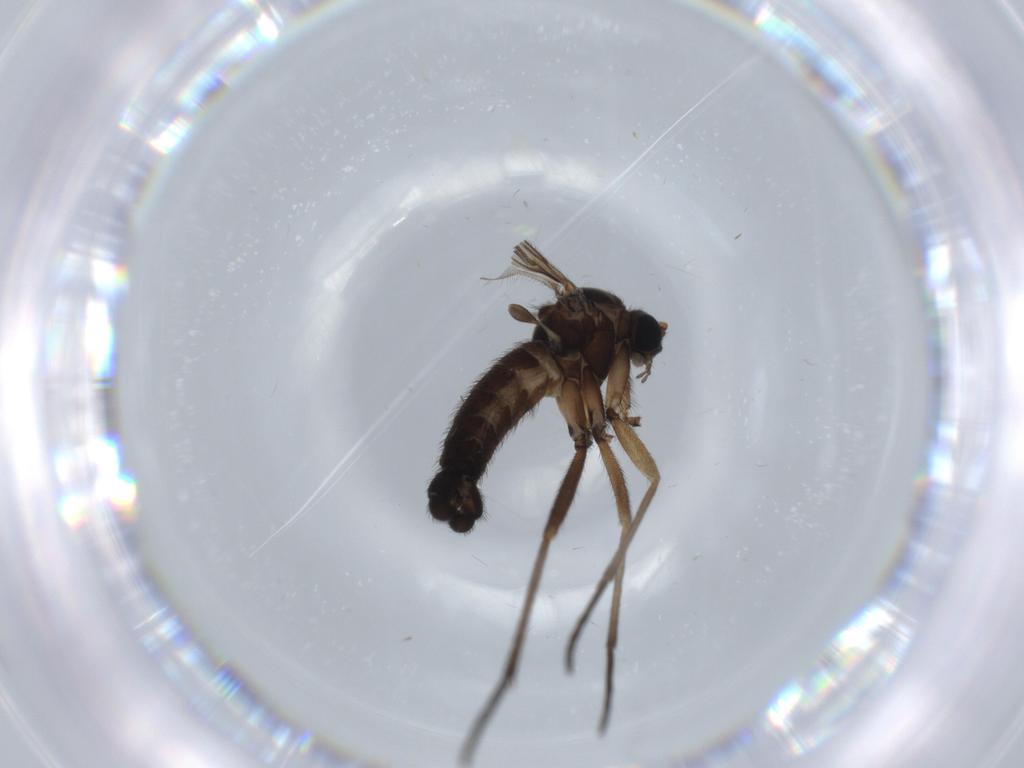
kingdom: Animalia
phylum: Arthropoda
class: Insecta
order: Diptera
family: Sciaridae
